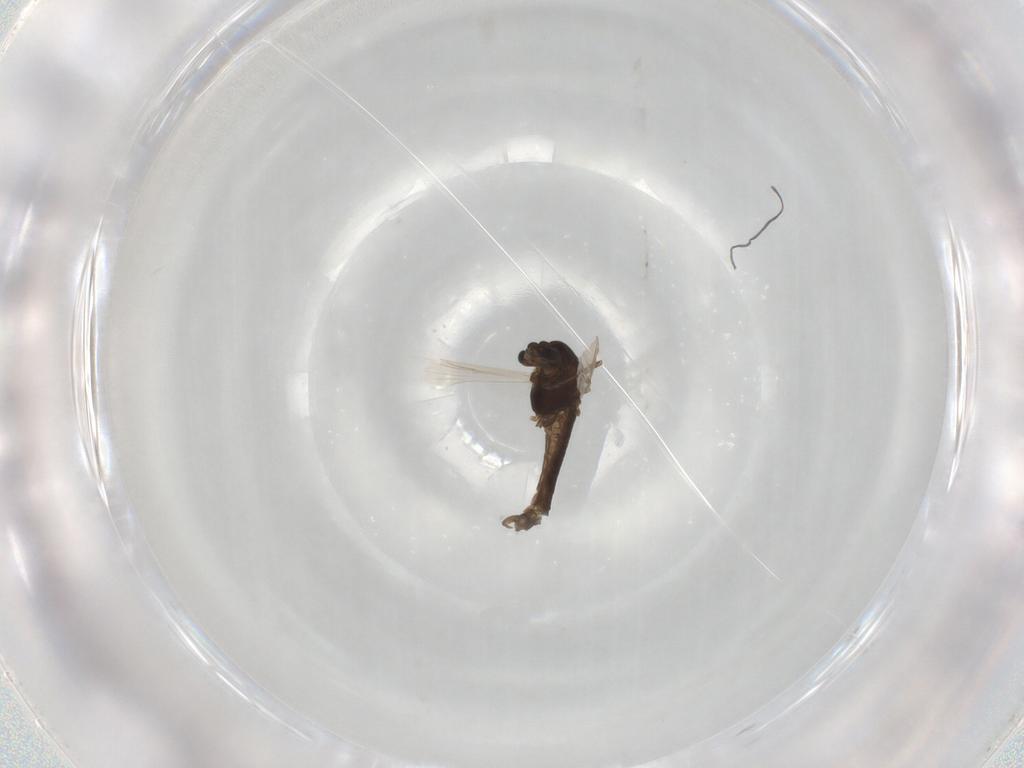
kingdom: Animalia
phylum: Arthropoda
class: Insecta
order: Diptera
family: Chironomidae
